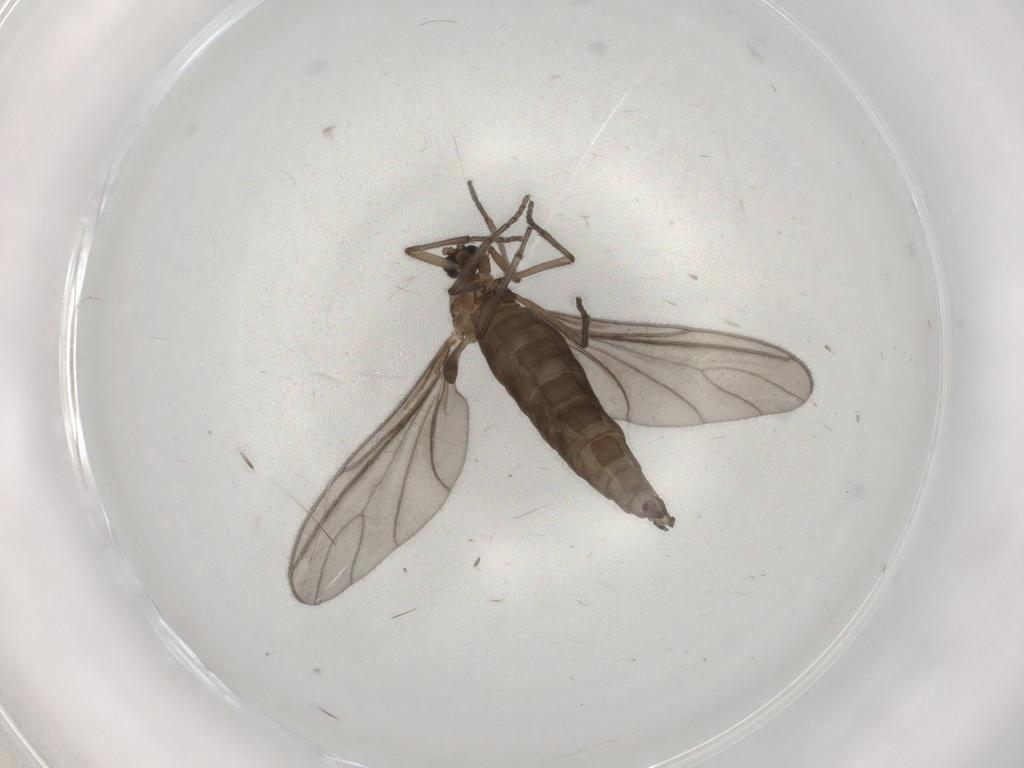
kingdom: Animalia
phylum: Arthropoda
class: Insecta
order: Diptera
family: Sciaridae
